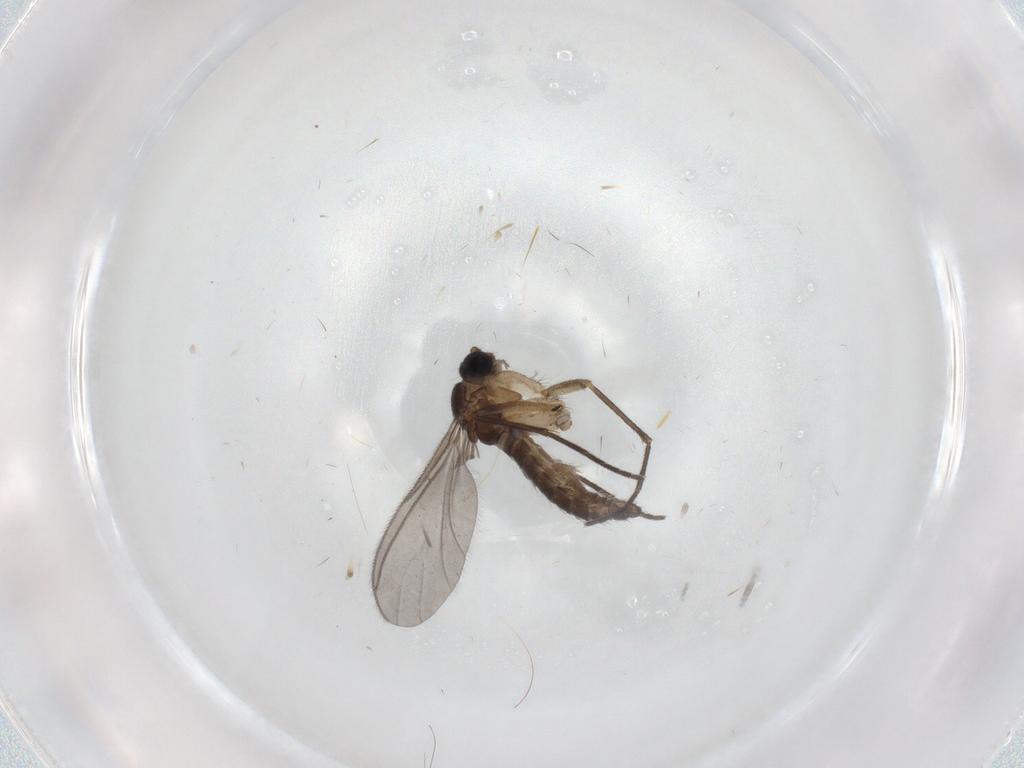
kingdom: Animalia
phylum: Arthropoda
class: Insecta
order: Diptera
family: Sciaridae
